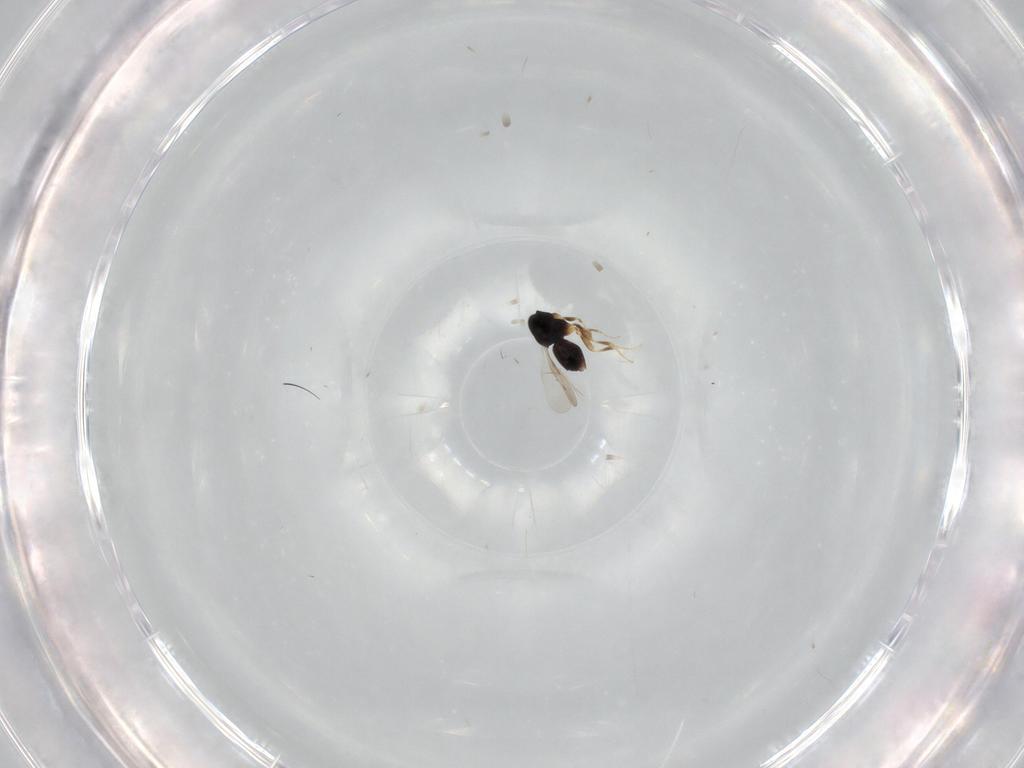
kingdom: Animalia
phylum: Arthropoda
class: Insecta
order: Hymenoptera
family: Mymaridae
